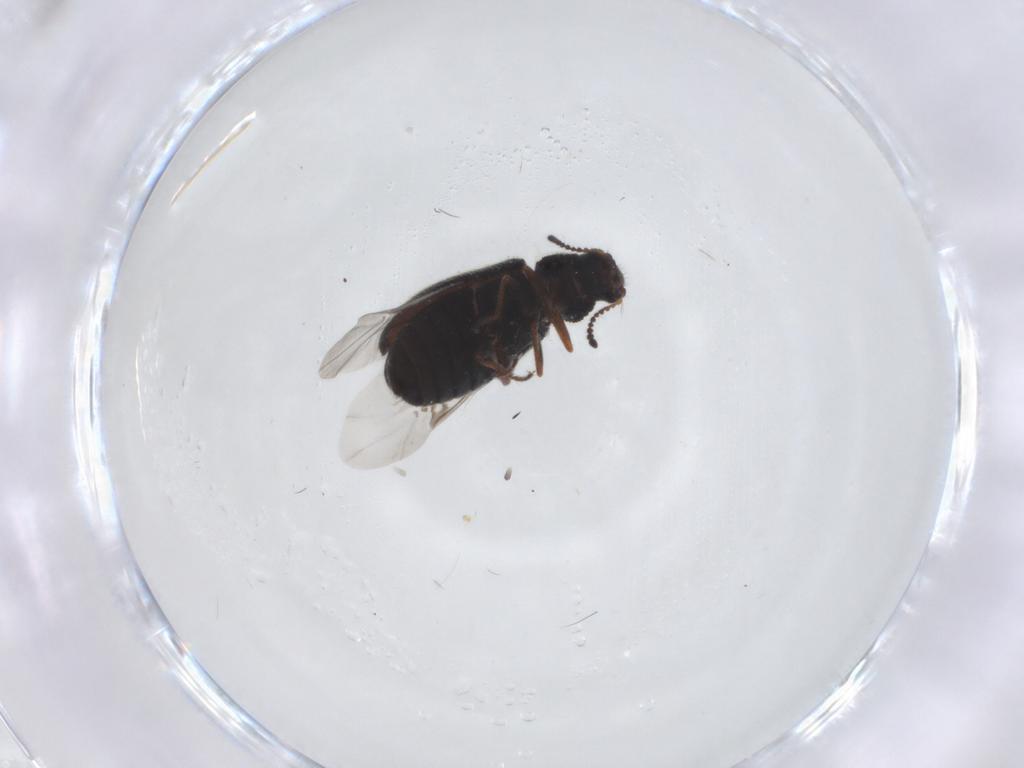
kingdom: Animalia
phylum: Arthropoda
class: Insecta
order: Coleoptera
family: Melyridae
